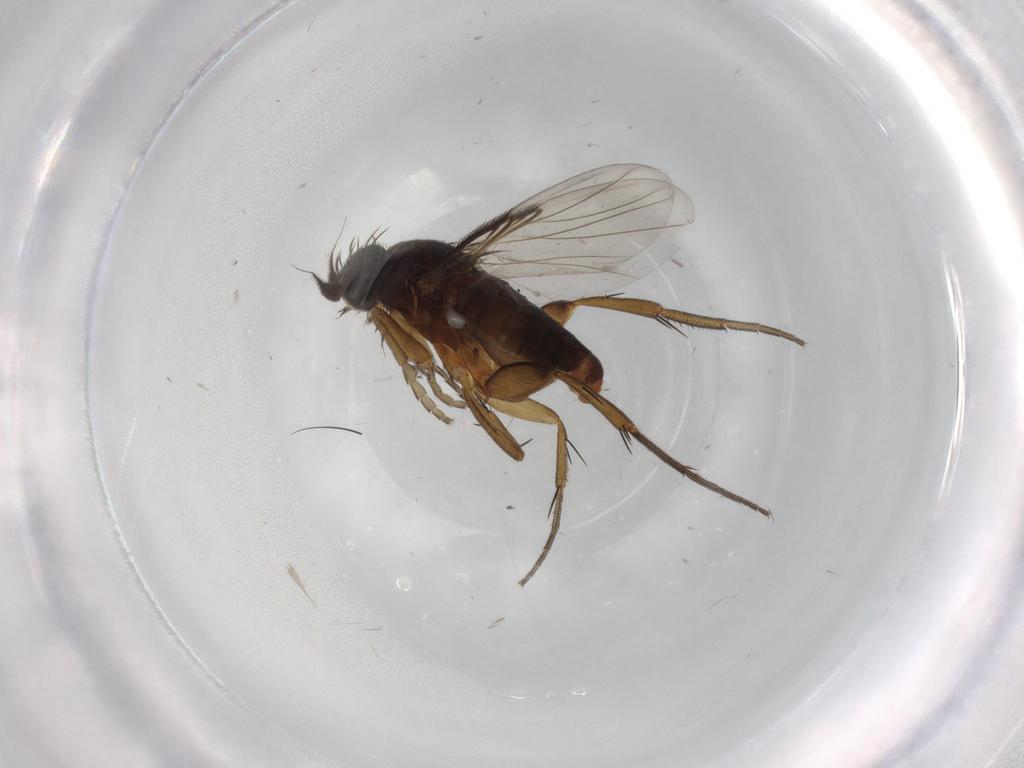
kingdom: Animalia
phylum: Arthropoda
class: Insecta
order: Diptera
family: Phoridae
